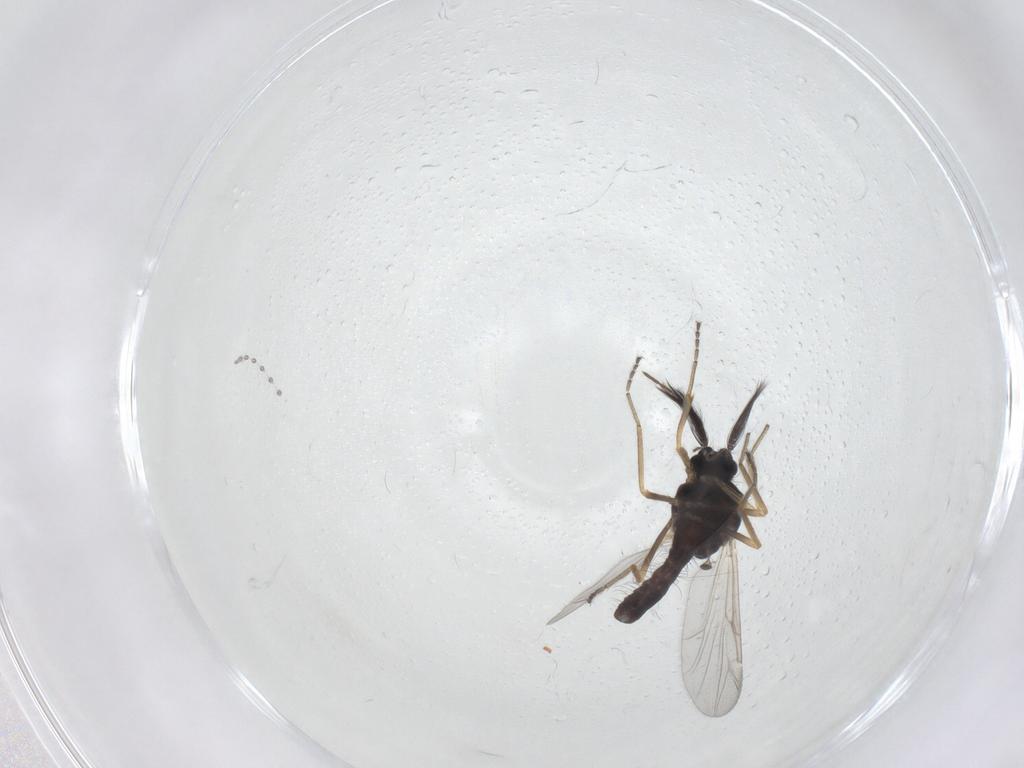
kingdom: Animalia
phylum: Arthropoda
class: Insecta
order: Diptera
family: Ceratopogonidae
